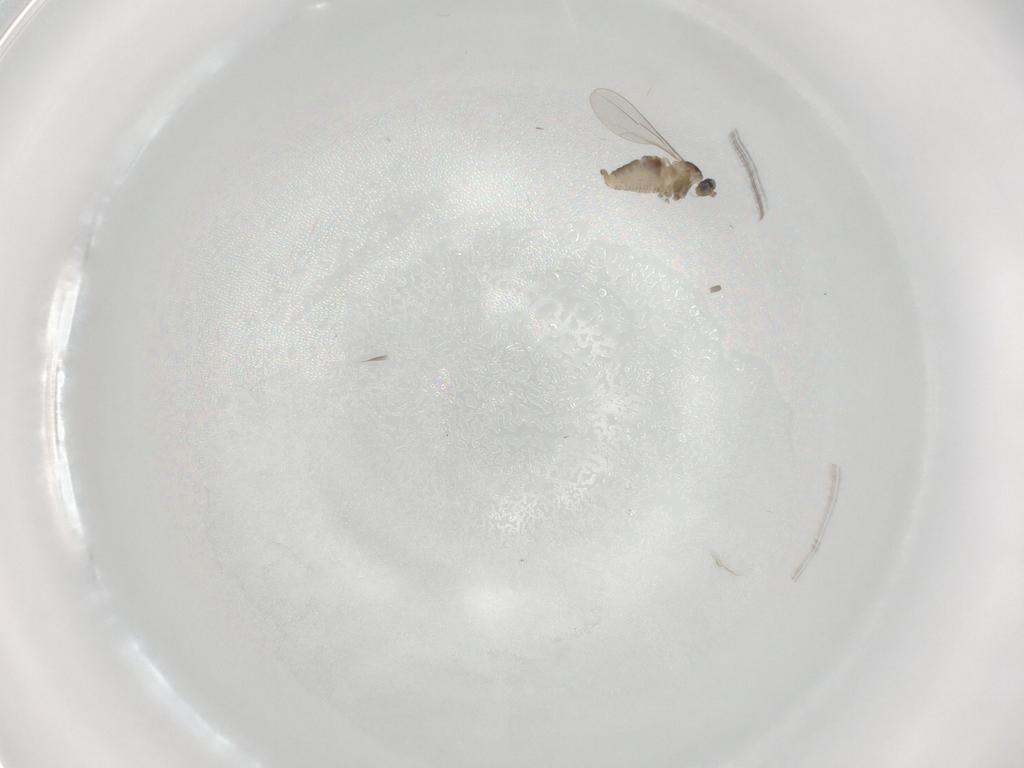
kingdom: Animalia
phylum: Arthropoda
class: Insecta
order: Diptera
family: Cecidomyiidae
